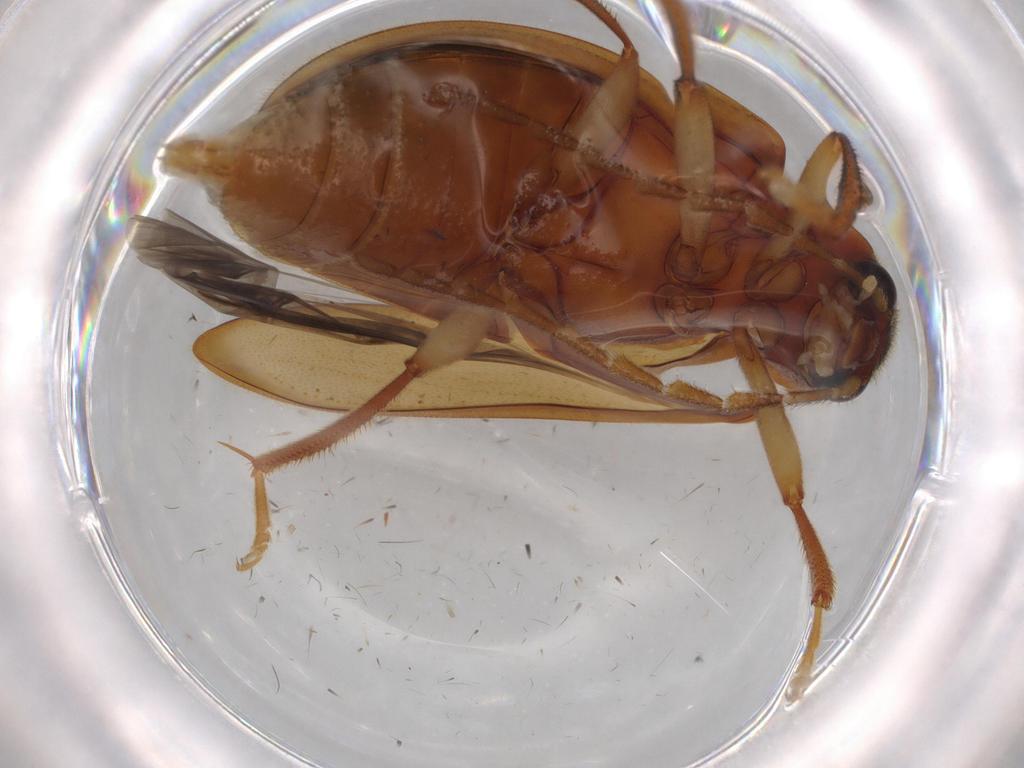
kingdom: Animalia
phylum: Arthropoda
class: Insecta
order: Coleoptera
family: Ptilodactylidae
